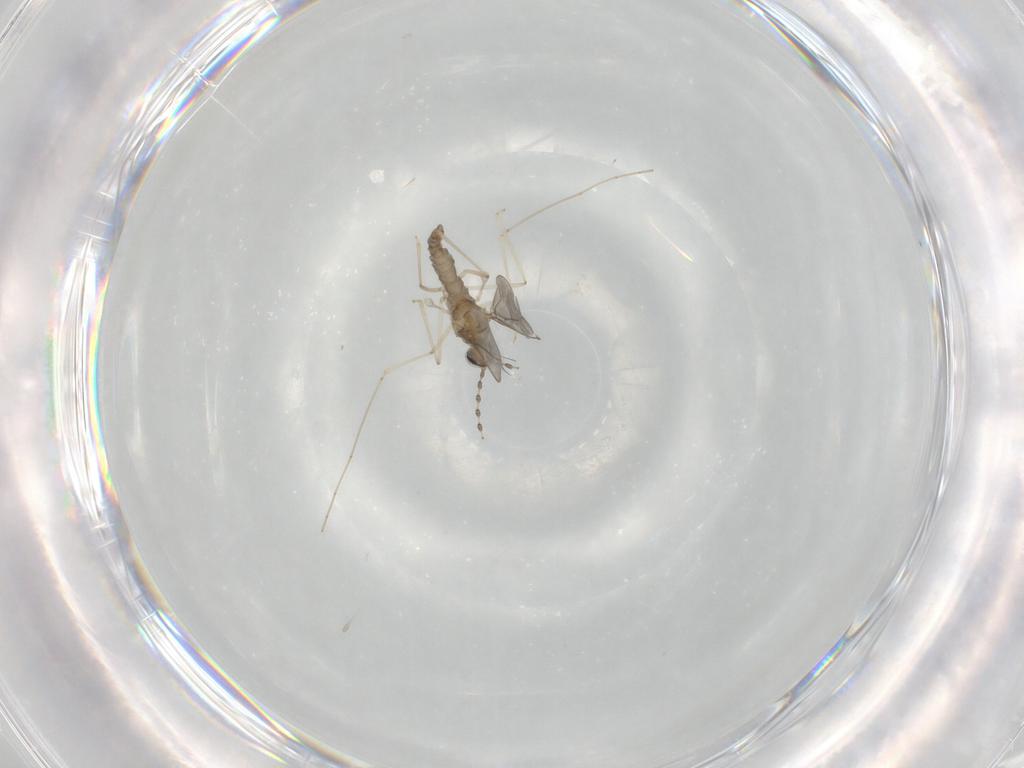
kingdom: Animalia
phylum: Arthropoda
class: Insecta
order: Diptera
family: Cecidomyiidae
